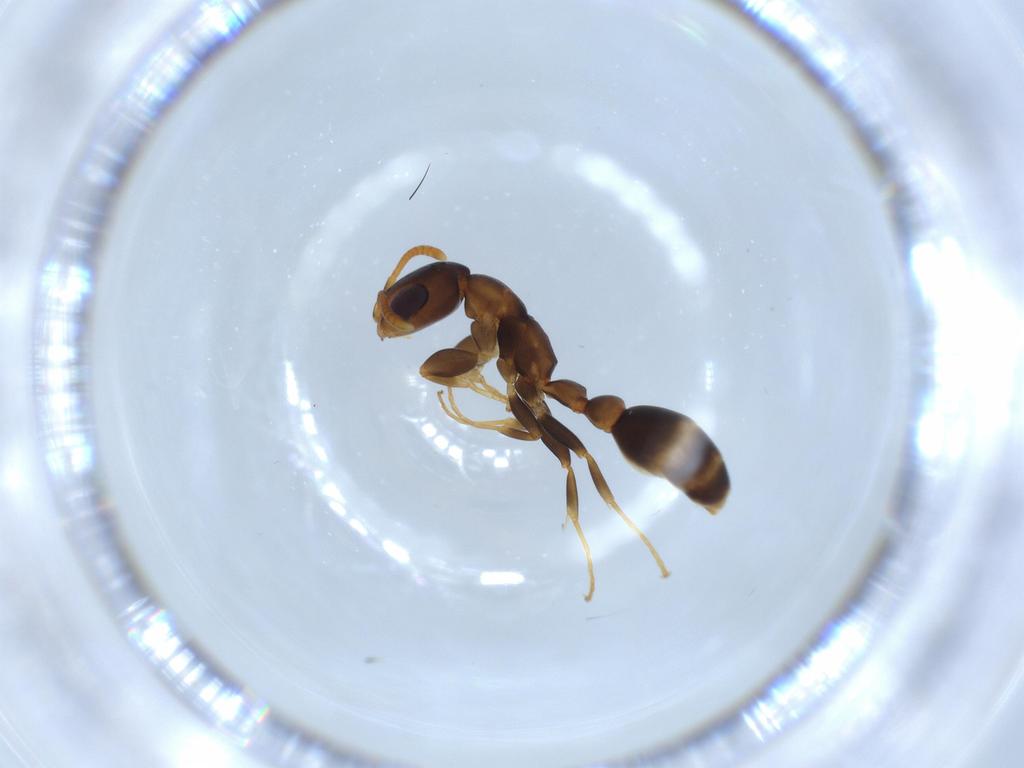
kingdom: Animalia
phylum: Arthropoda
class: Insecta
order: Hymenoptera
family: Formicidae
